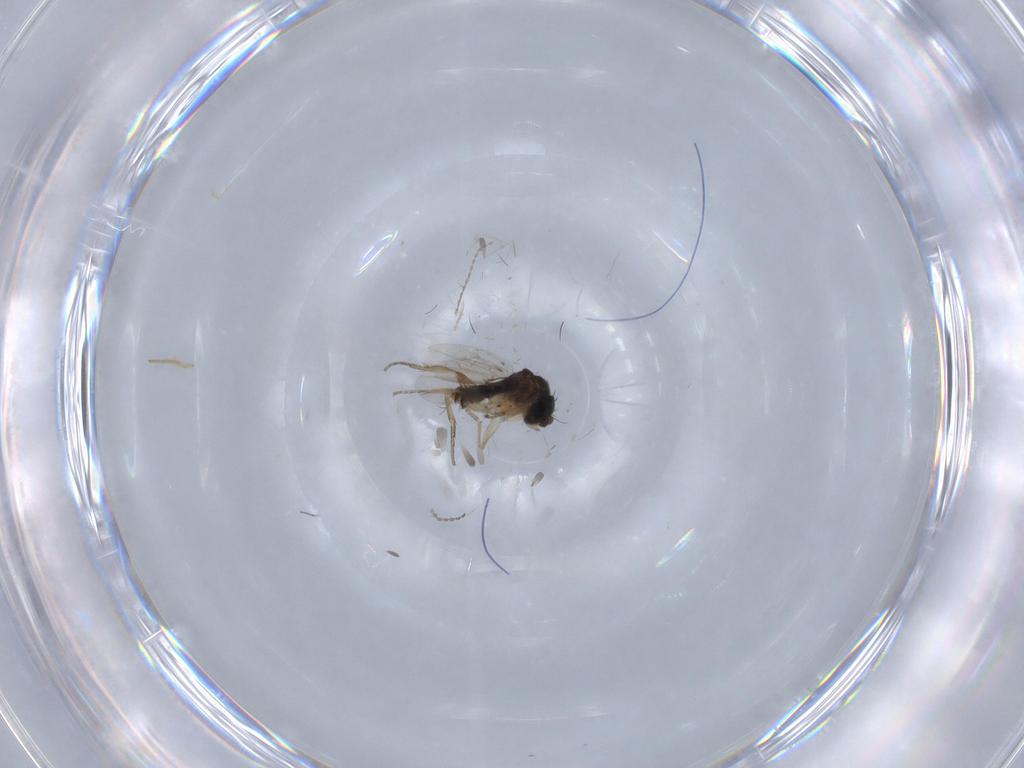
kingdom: Animalia
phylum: Arthropoda
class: Insecta
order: Diptera
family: Phoridae
